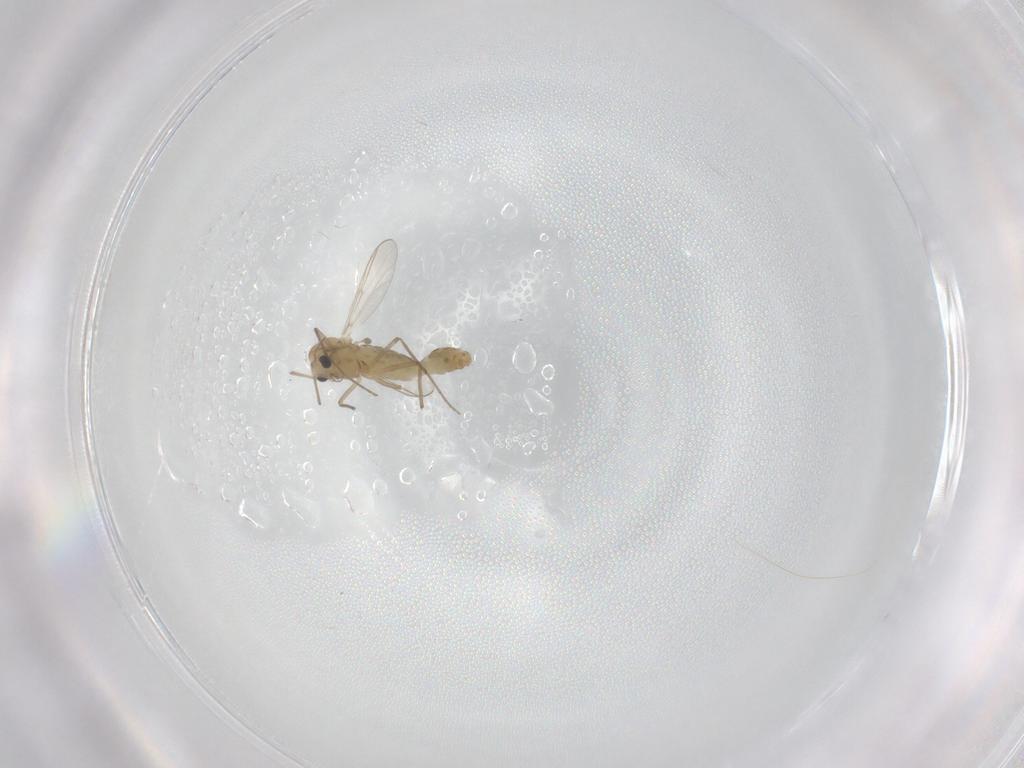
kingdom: Animalia
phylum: Arthropoda
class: Insecta
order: Diptera
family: Chironomidae
